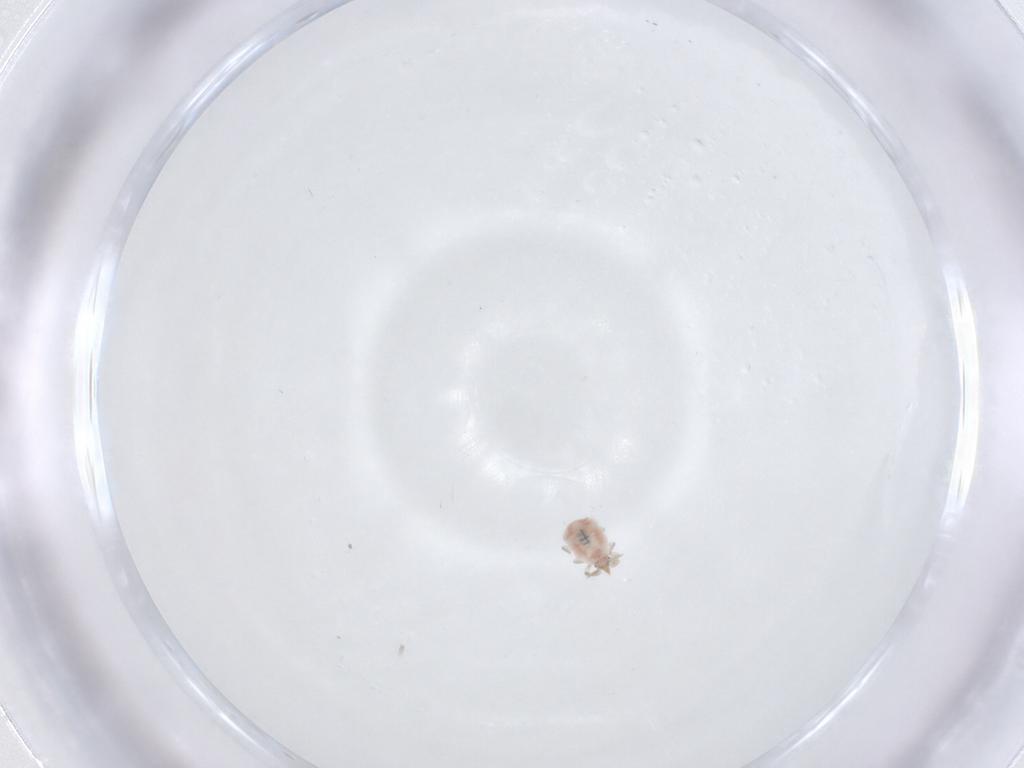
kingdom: Animalia
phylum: Arthropoda
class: Insecta
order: Neuroptera
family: Coniopterygidae
